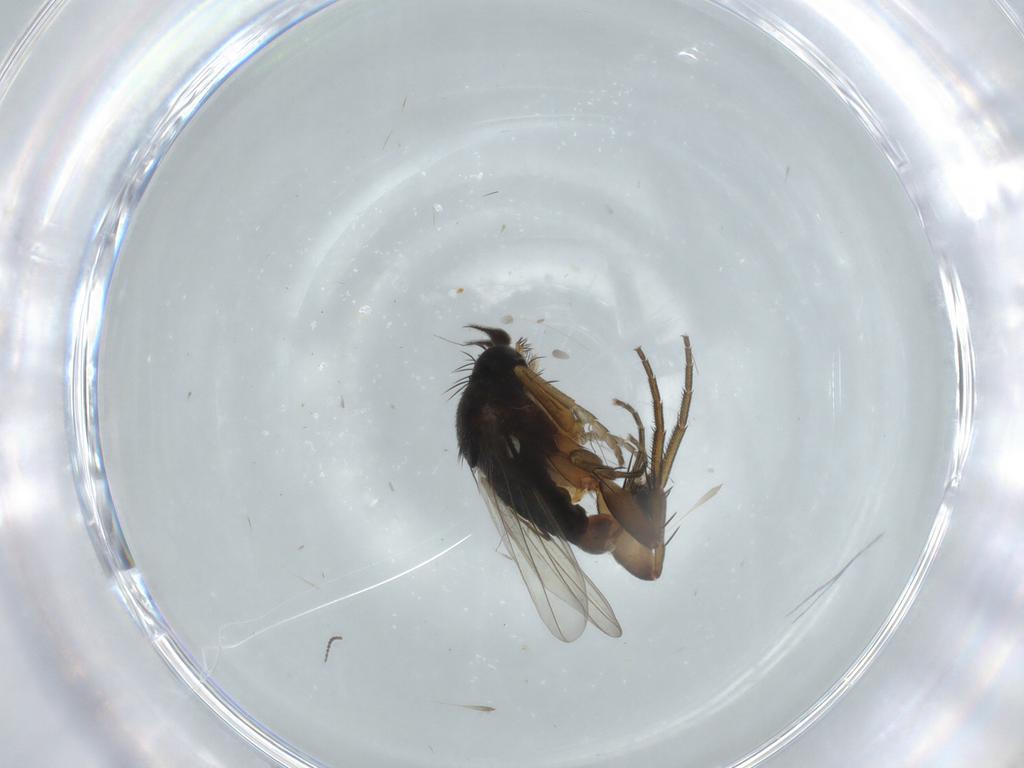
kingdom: Animalia
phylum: Arthropoda
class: Insecta
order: Diptera
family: Phoridae
